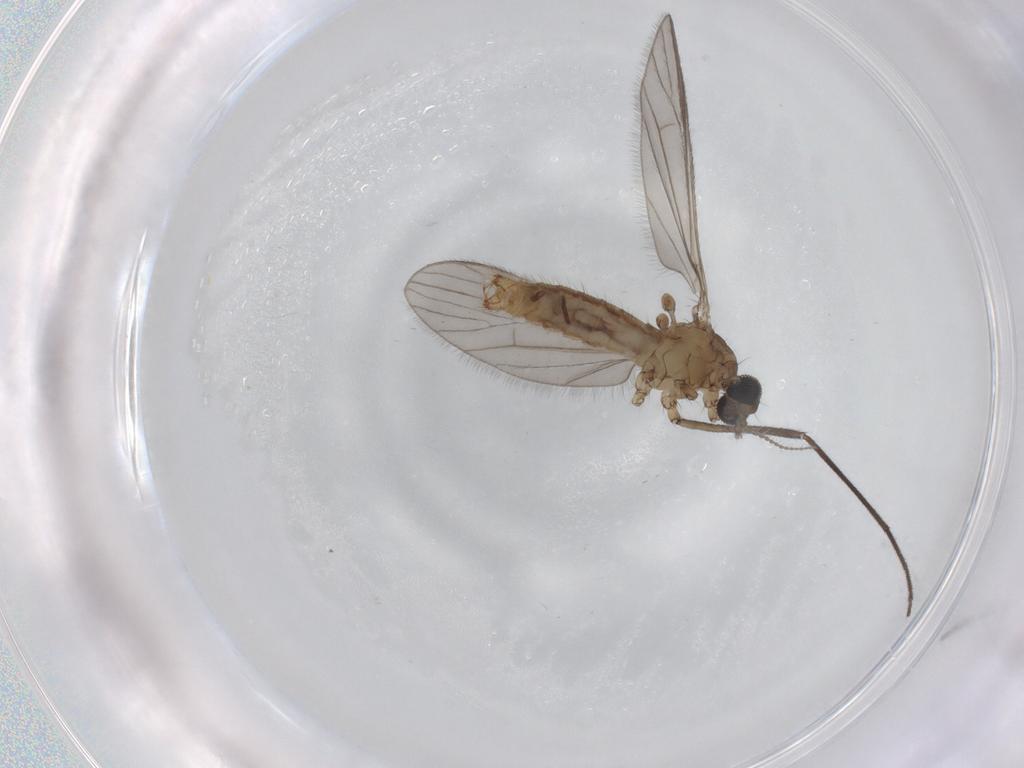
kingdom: Animalia
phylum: Arthropoda
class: Insecta
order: Diptera
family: Limoniidae
